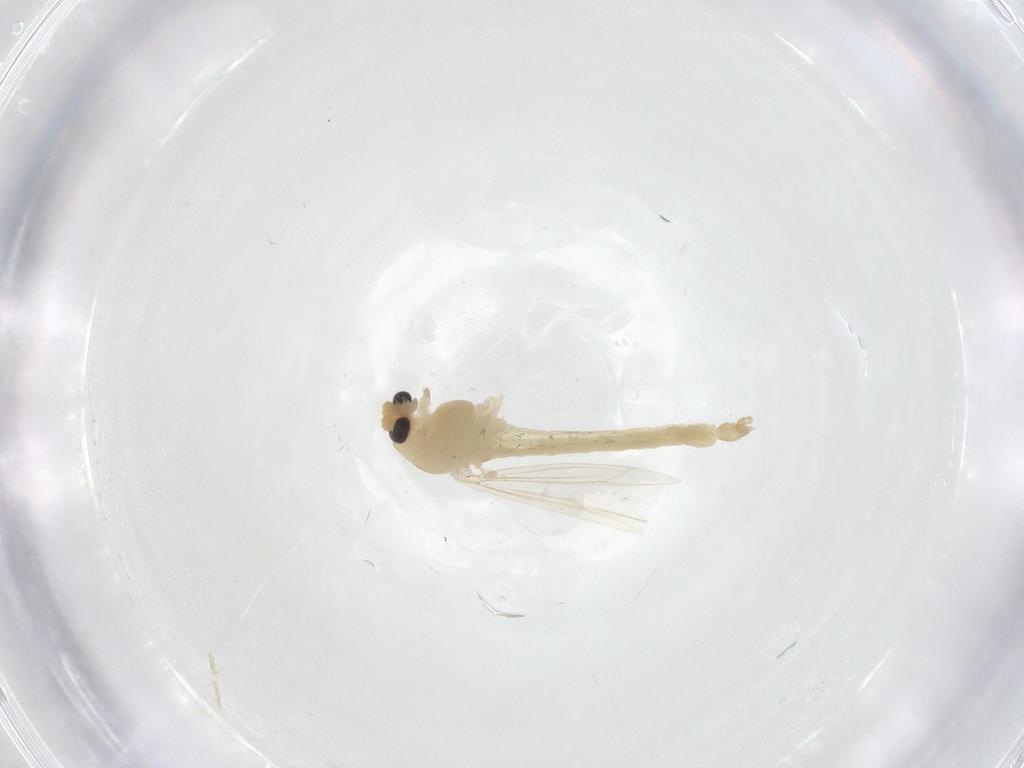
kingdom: Animalia
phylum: Arthropoda
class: Insecta
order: Diptera
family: Chironomidae
